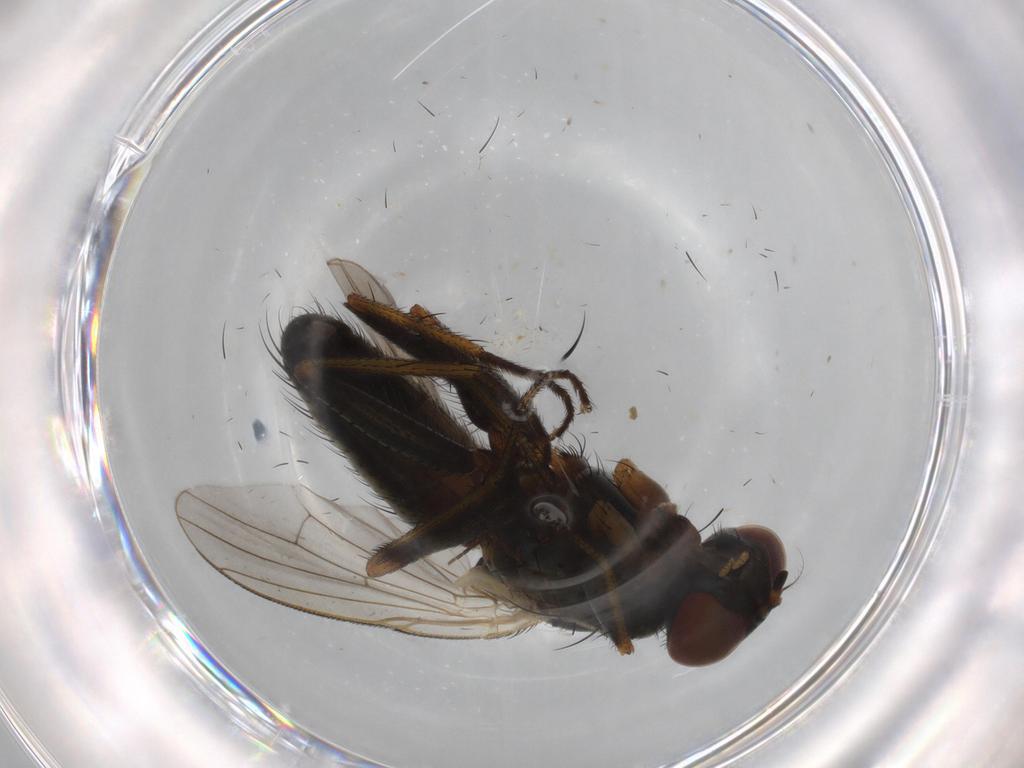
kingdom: Animalia
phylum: Arthropoda
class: Insecta
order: Diptera
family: Muscidae
